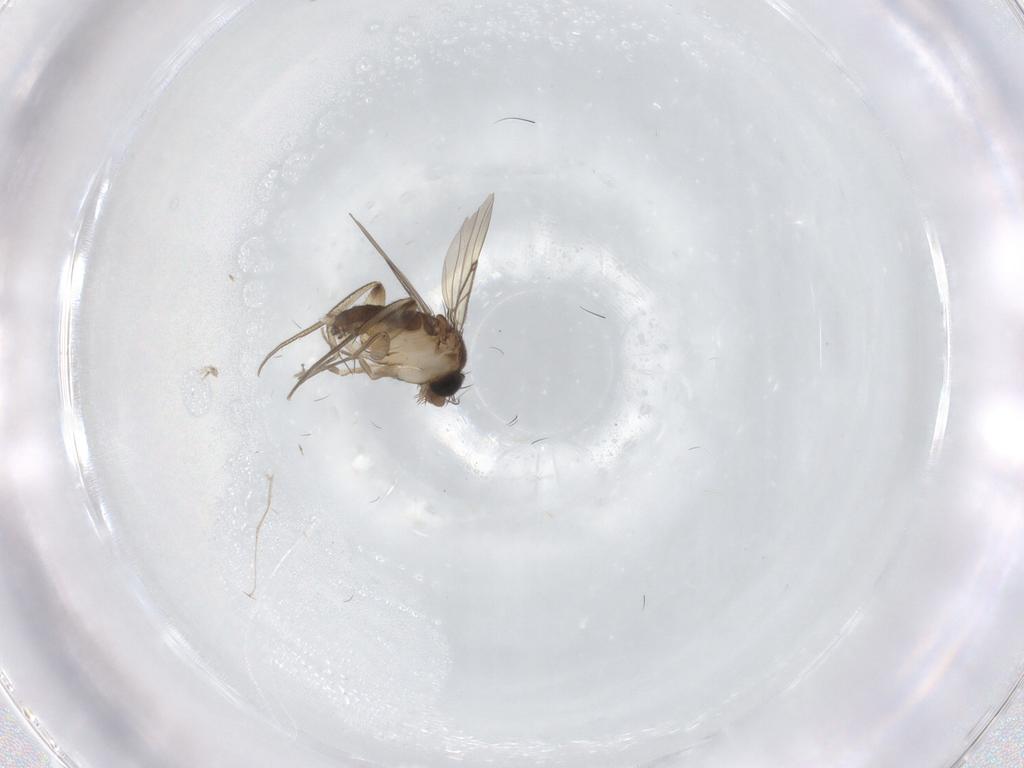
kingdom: Animalia
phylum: Arthropoda
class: Insecta
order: Diptera
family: Phoridae
